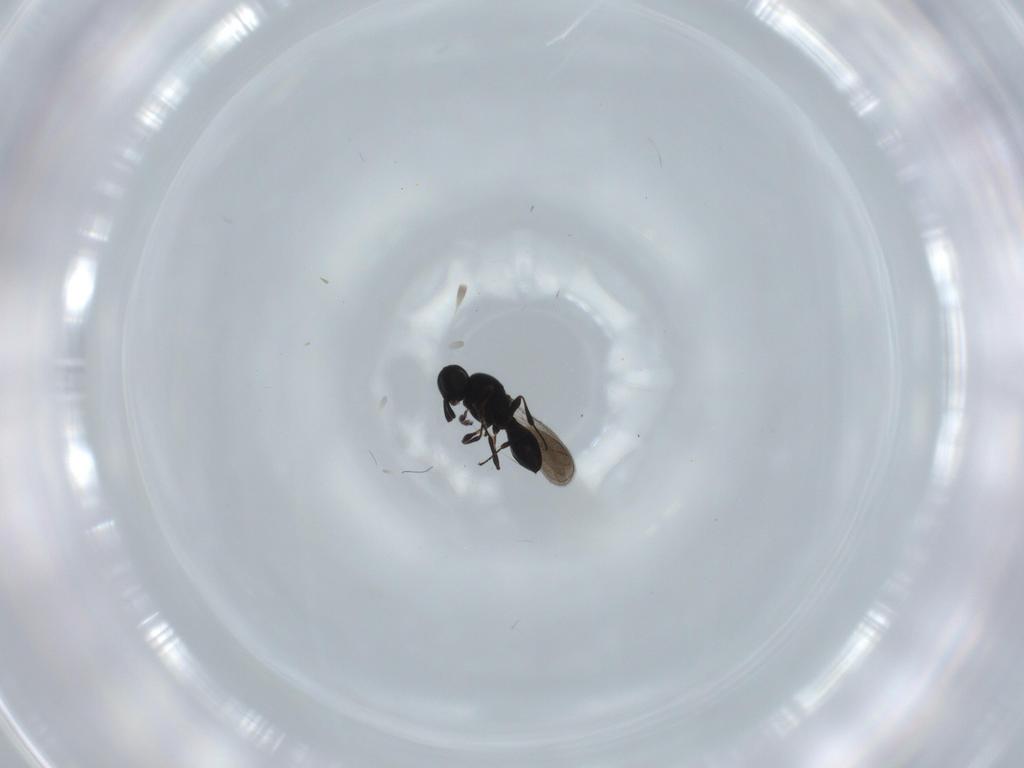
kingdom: Animalia
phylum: Arthropoda
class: Insecta
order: Hymenoptera
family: Platygastridae
